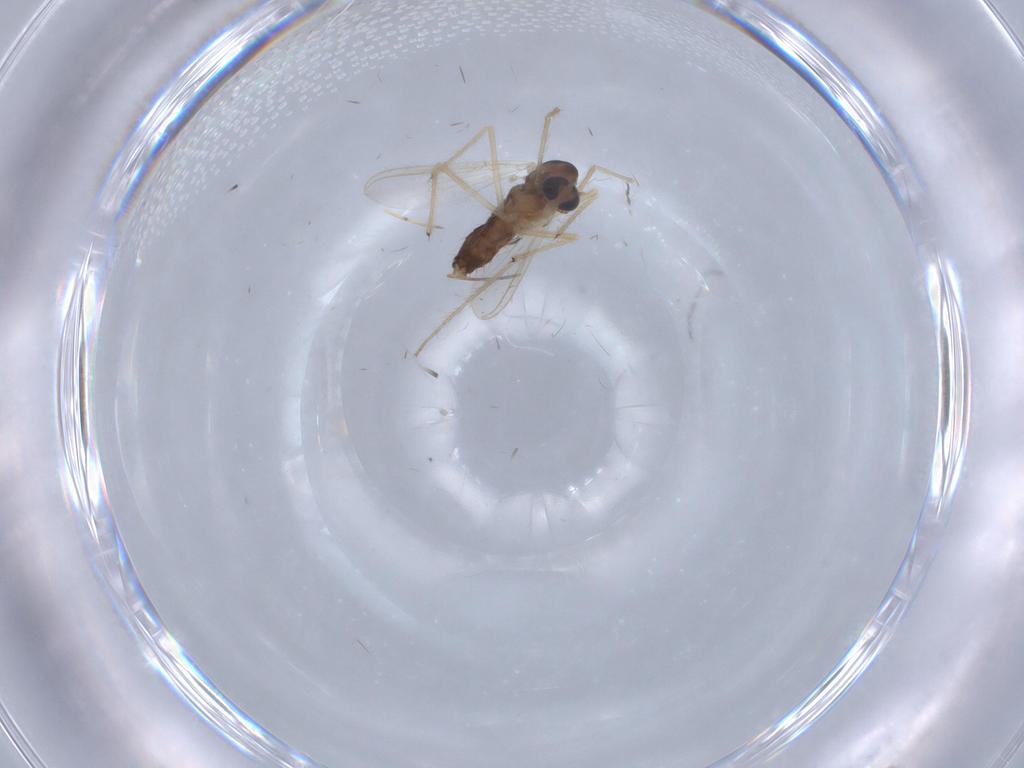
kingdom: Animalia
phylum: Arthropoda
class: Insecta
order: Diptera
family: Chironomidae
